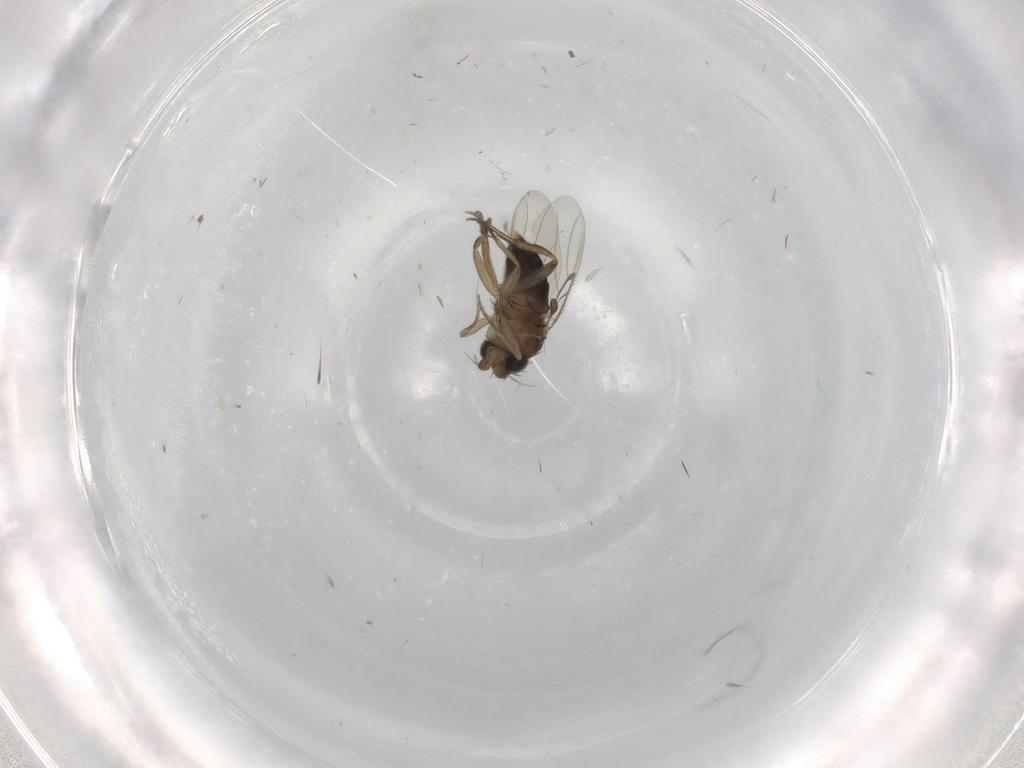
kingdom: Animalia
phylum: Arthropoda
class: Insecta
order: Diptera
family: Phoridae
